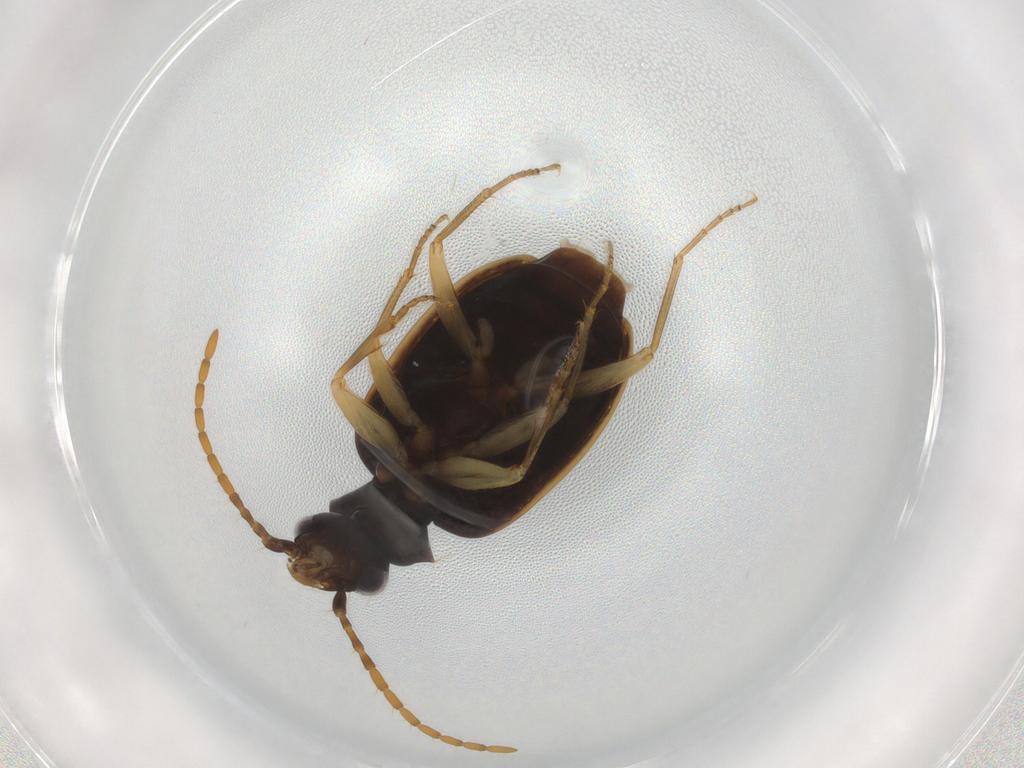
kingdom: Animalia
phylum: Arthropoda
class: Insecta
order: Coleoptera
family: Carabidae
